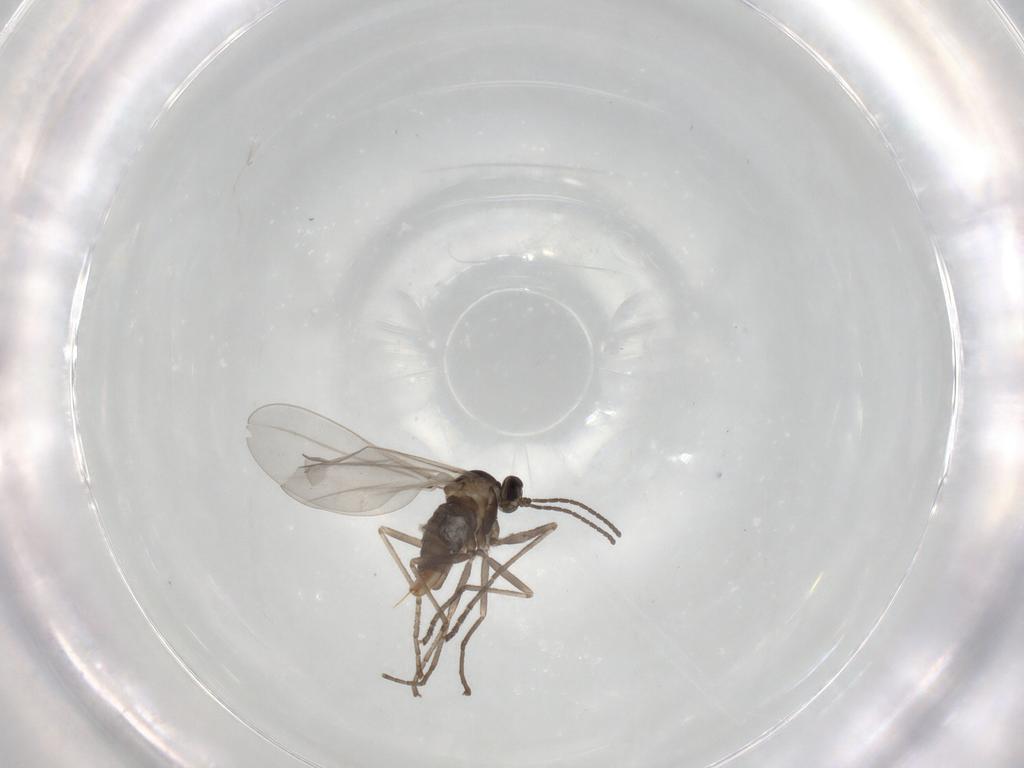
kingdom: Animalia
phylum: Arthropoda
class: Insecta
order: Diptera
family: Cecidomyiidae
